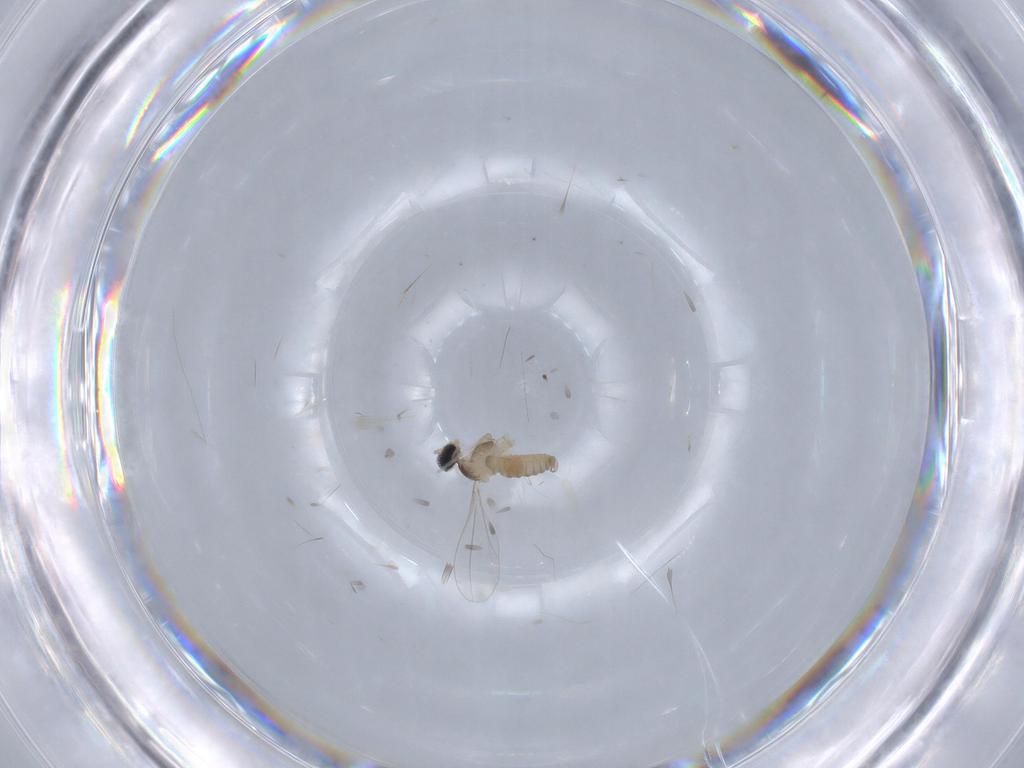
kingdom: Animalia
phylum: Arthropoda
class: Insecta
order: Diptera
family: Cecidomyiidae
